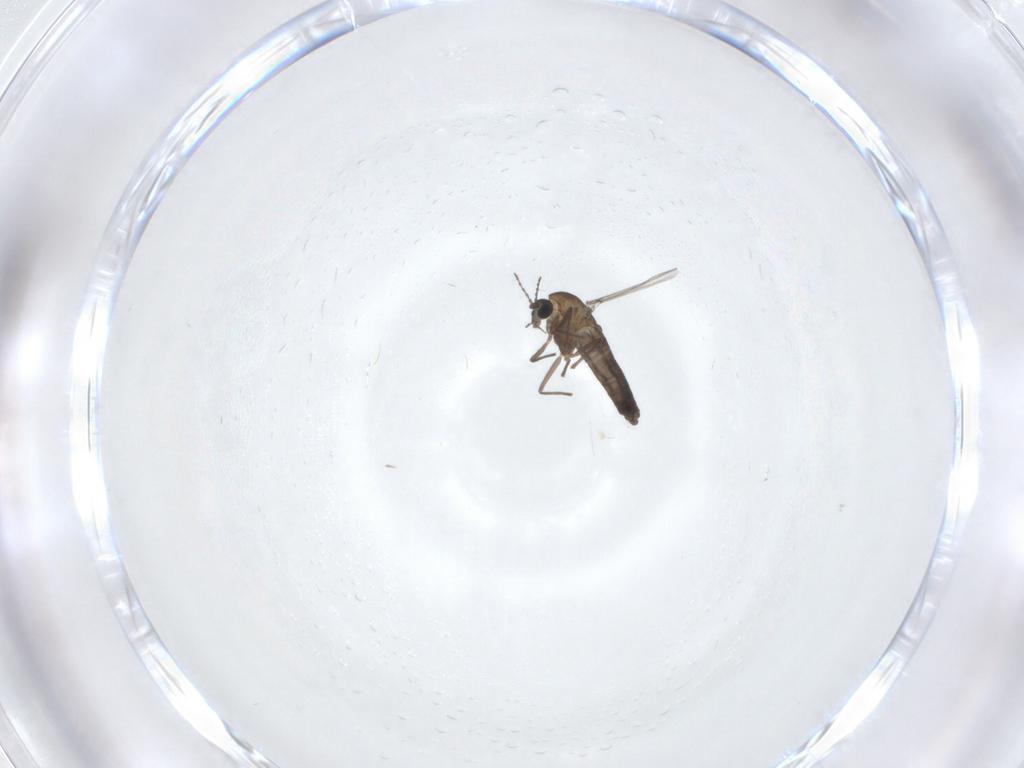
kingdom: Animalia
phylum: Arthropoda
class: Insecta
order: Diptera
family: Chironomidae
